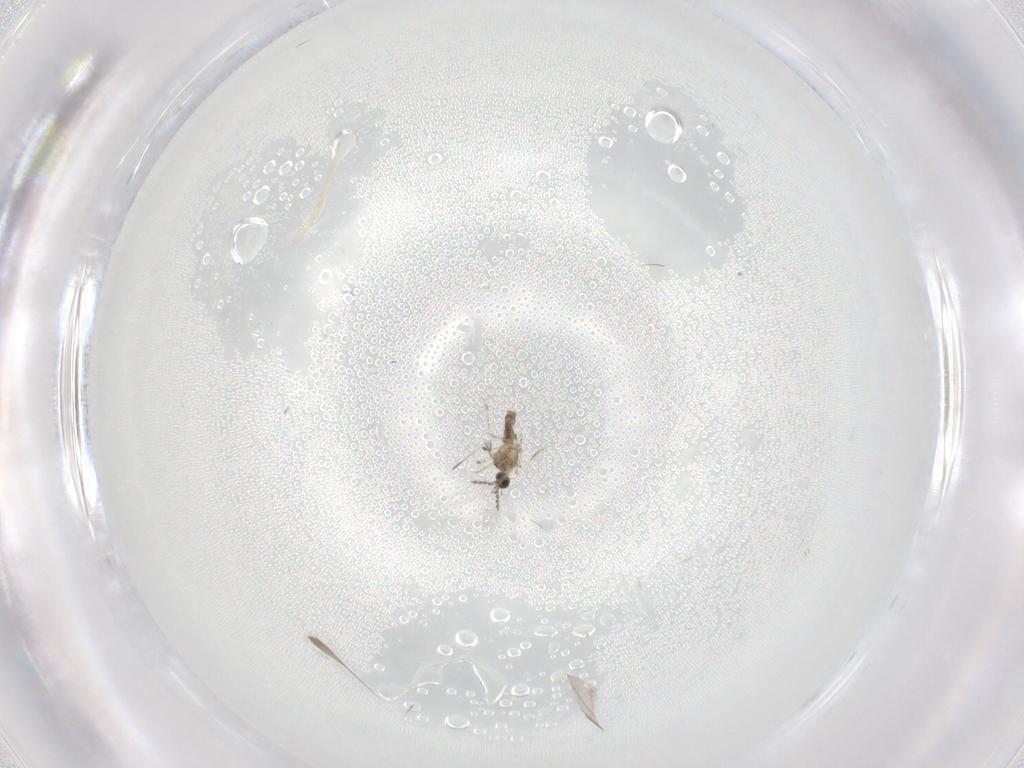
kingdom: Animalia
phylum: Arthropoda
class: Insecta
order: Diptera
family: Cecidomyiidae
